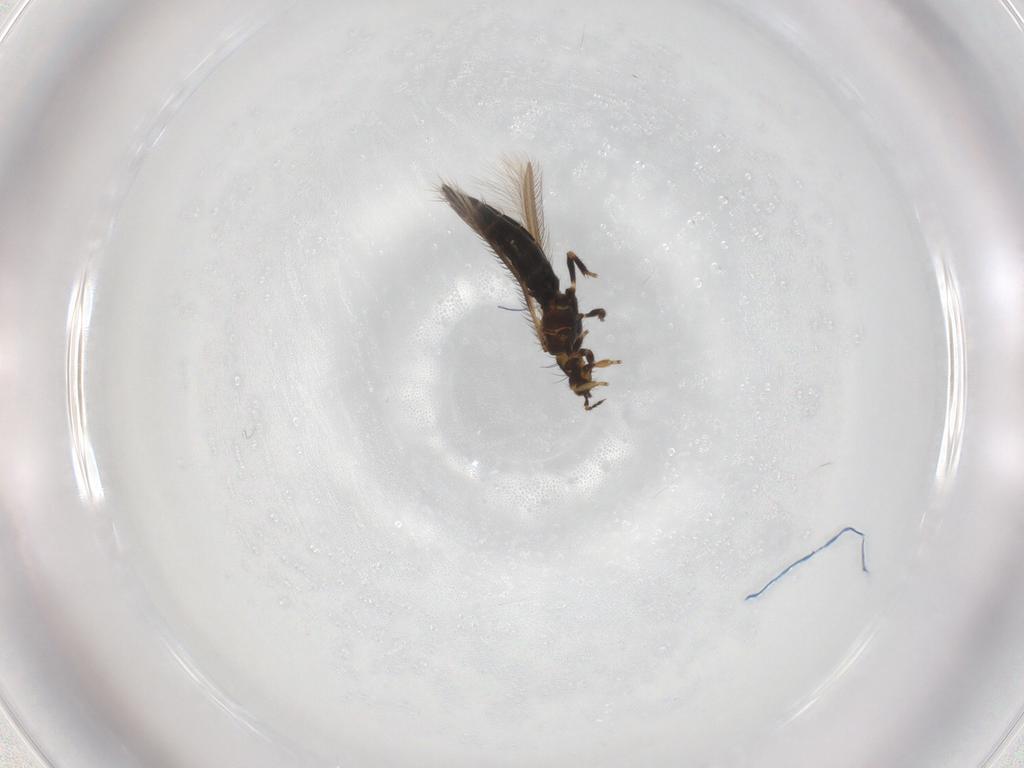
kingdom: Animalia
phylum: Arthropoda
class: Insecta
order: Thysanoptera
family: Thripidae
